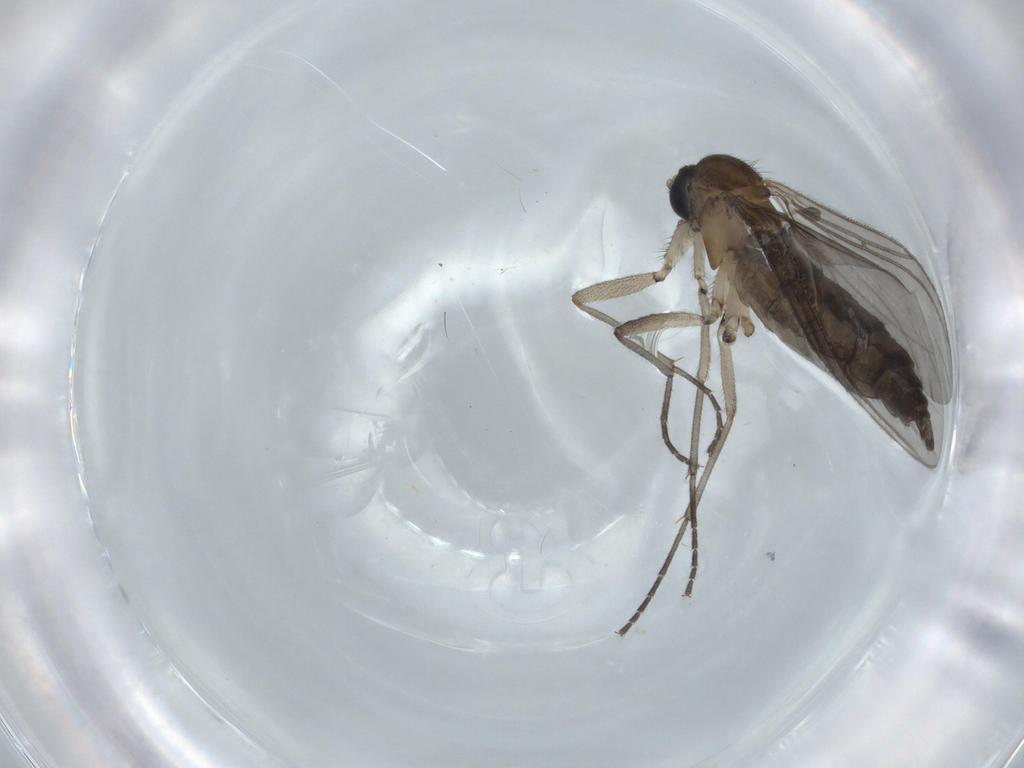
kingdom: Animalia
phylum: Arthropoda
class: Insecta
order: Diptera
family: Sciaridae
